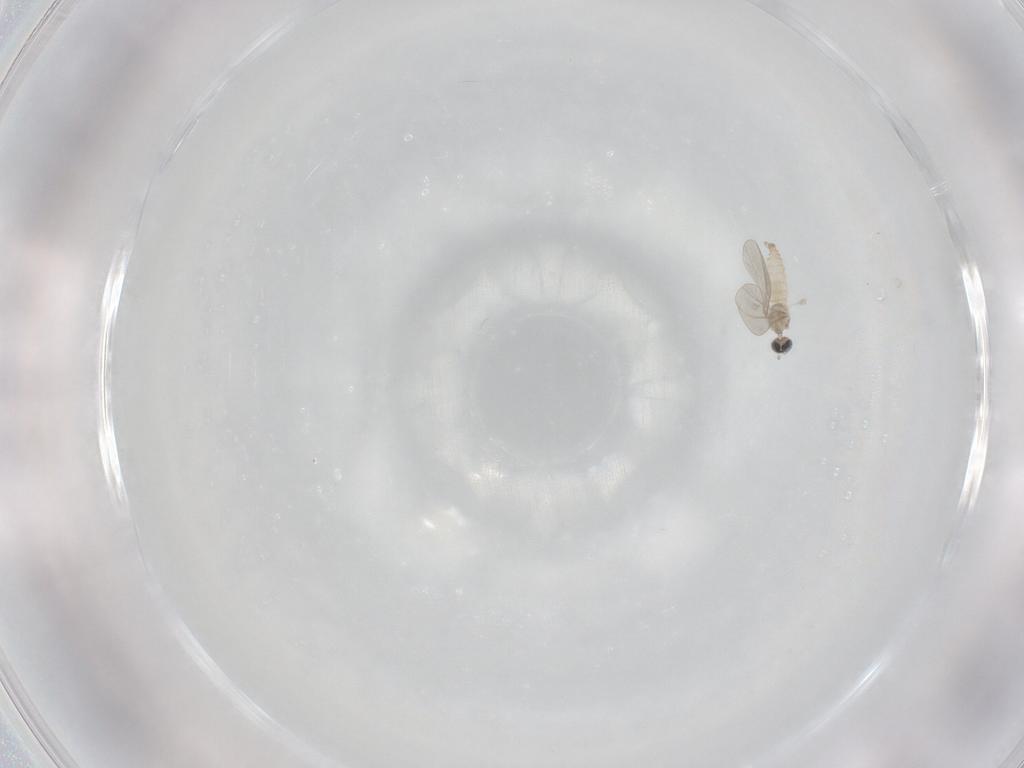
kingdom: Animalia
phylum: Arthropoda
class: Insecta
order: Diptera
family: Cecidomyiidae
